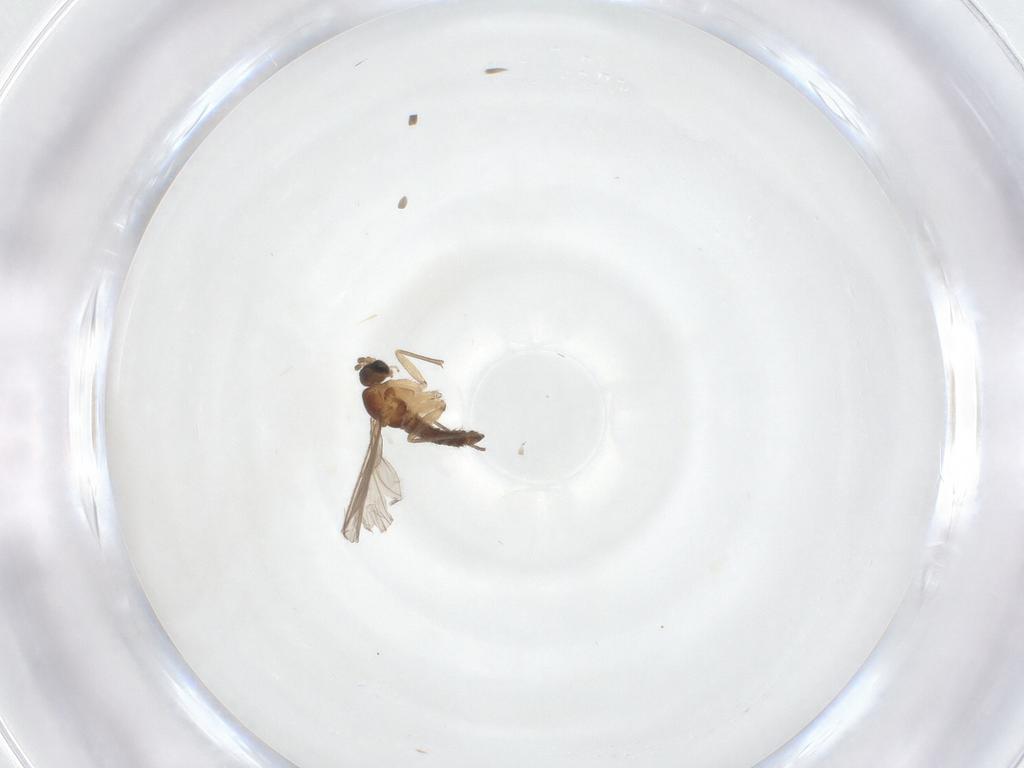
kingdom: Animalia
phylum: Arthropoda
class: Insecta
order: Diptera
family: Sciaridae
